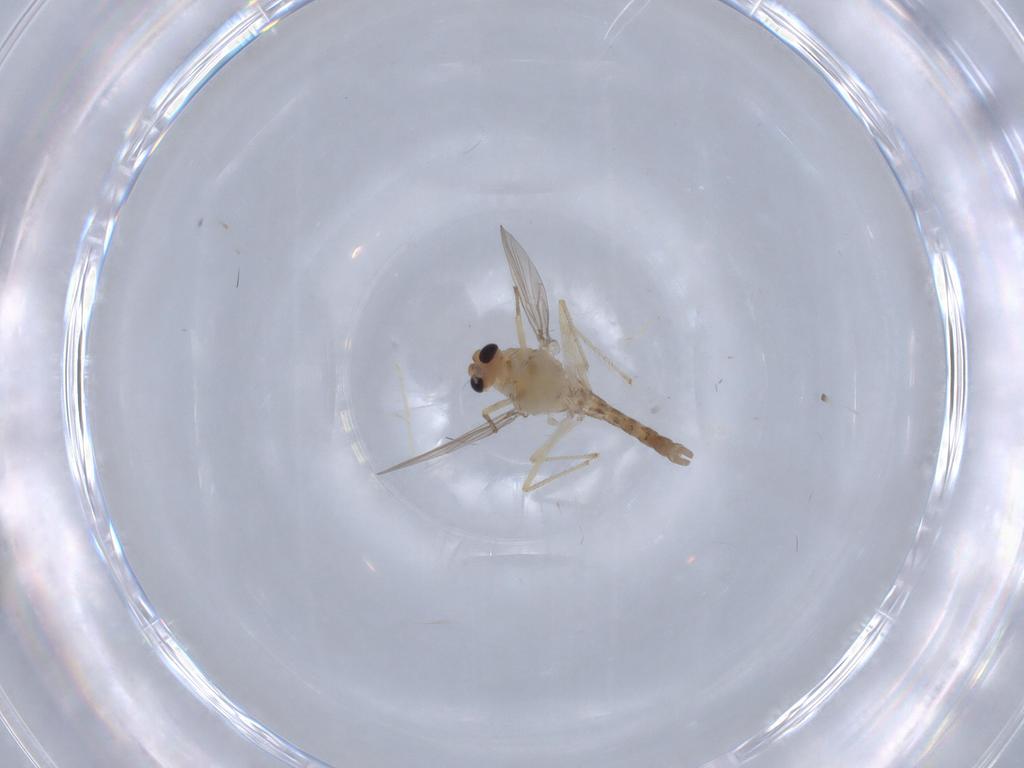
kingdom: Animalia
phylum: Arthropoda
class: Insecta
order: Diptera
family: Chironomidae
